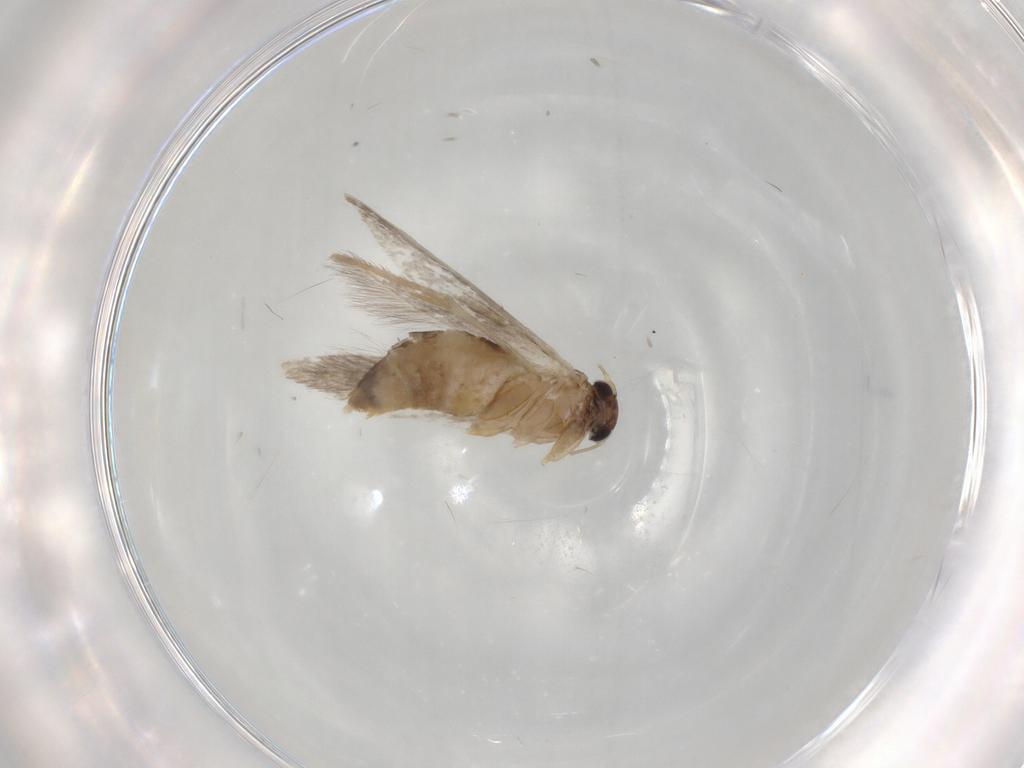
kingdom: Animalia
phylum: Arthropoda
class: Insecta
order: Lepidoptera
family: Tineidae
